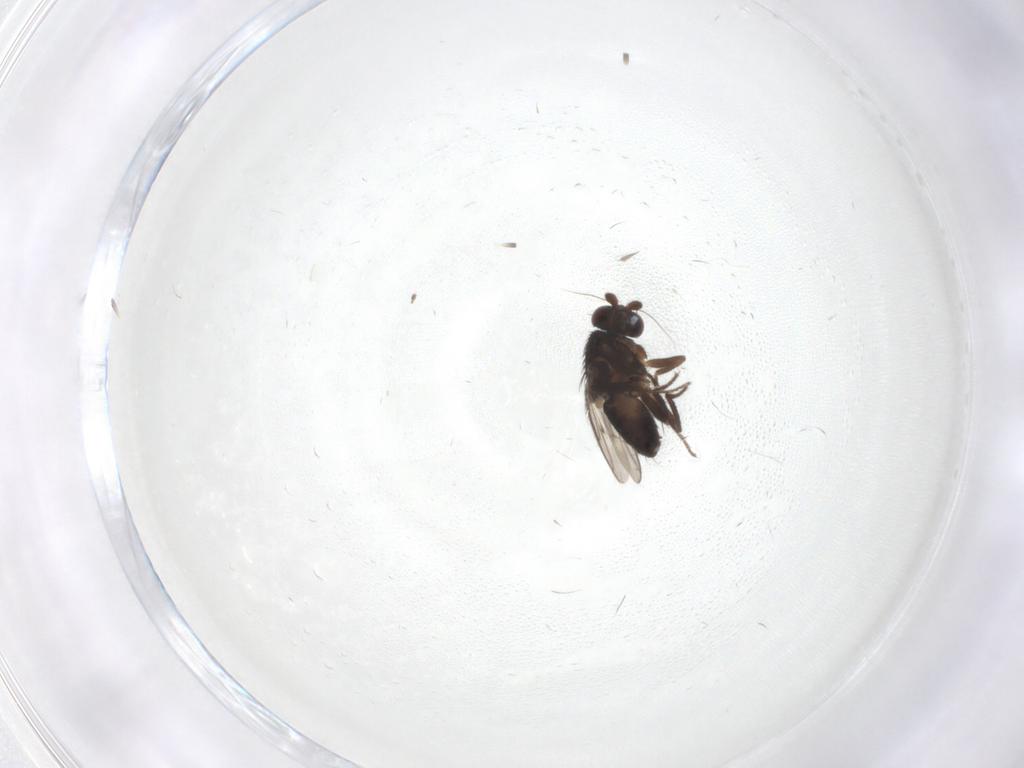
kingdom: Animalia
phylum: Arthropoda
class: Insecta
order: Diptera
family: Sphaeroceridae
